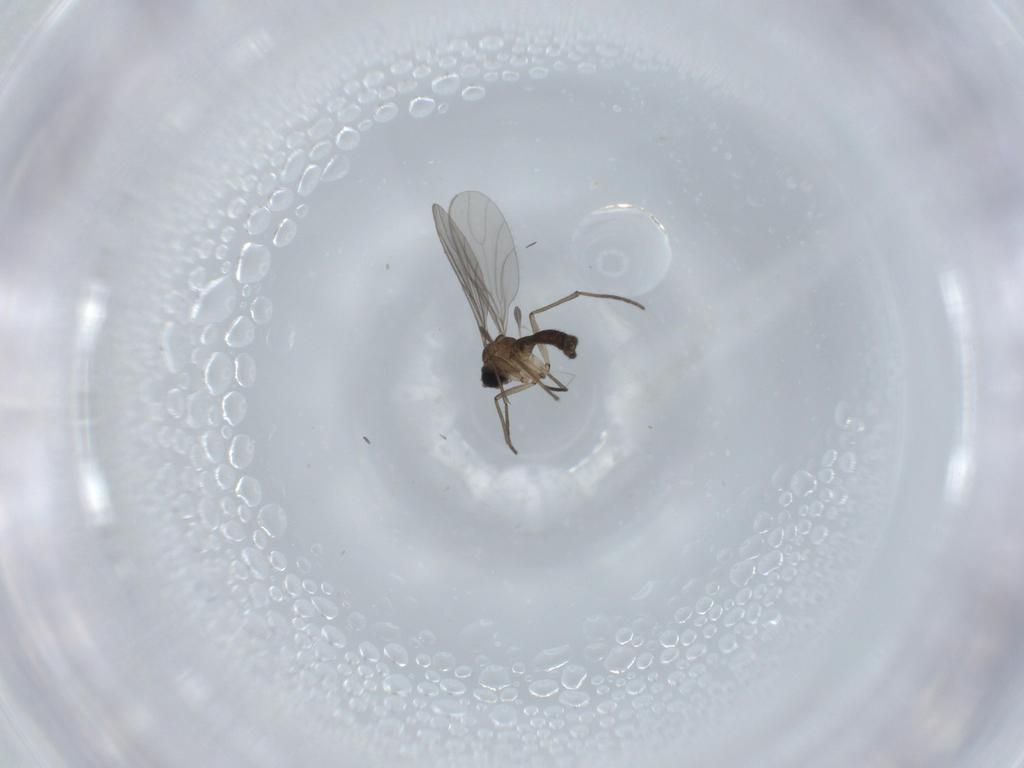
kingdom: Animalia
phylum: Arthropoda
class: Insecta
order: Diptera
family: Sciaridae
